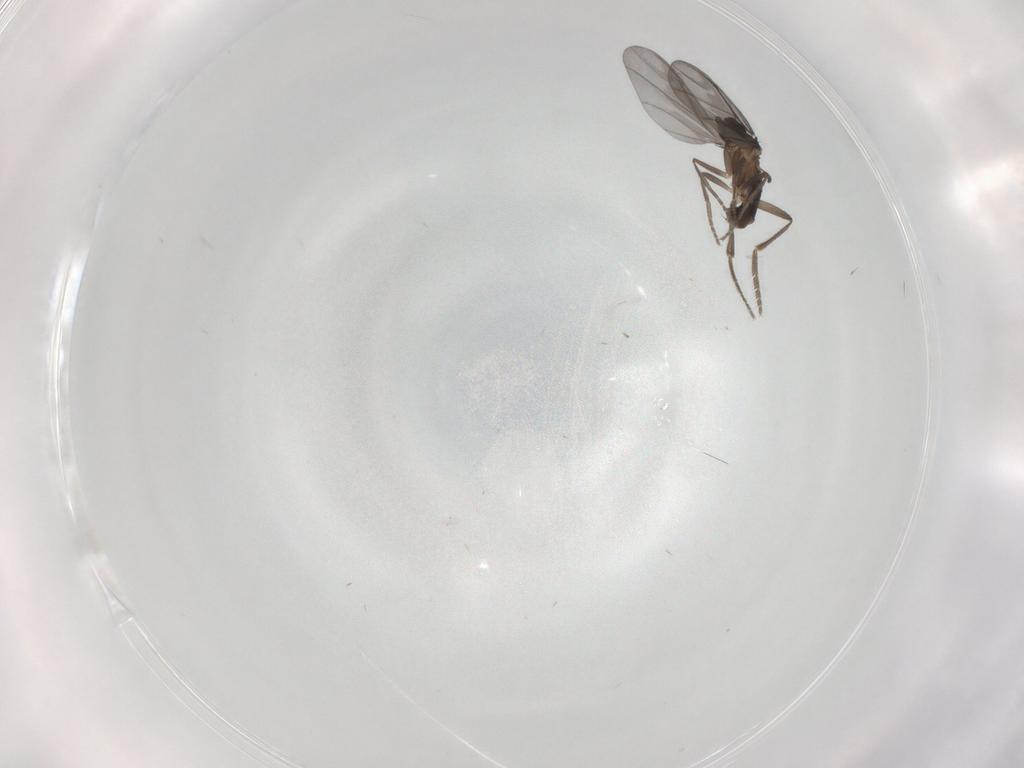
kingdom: Animalia
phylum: Arthropoda
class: Insecta
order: Diptera
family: Phoridae
